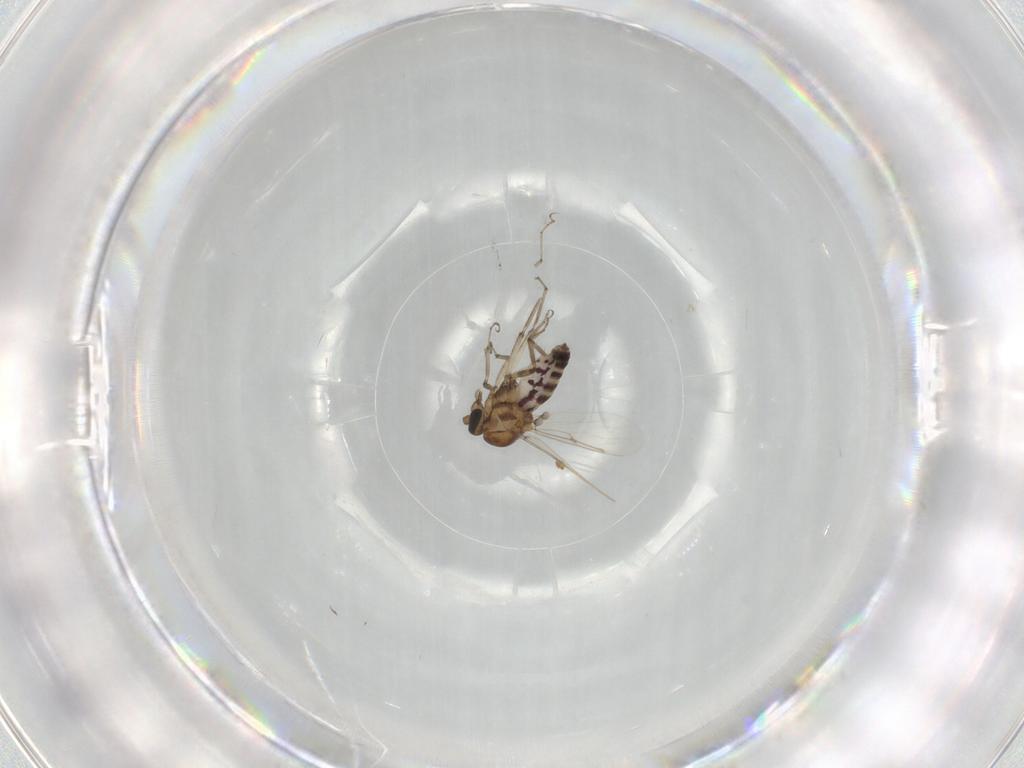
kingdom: Animalia
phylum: Arthropoda
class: Insecta
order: Diptera
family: Ceratopogonidae
